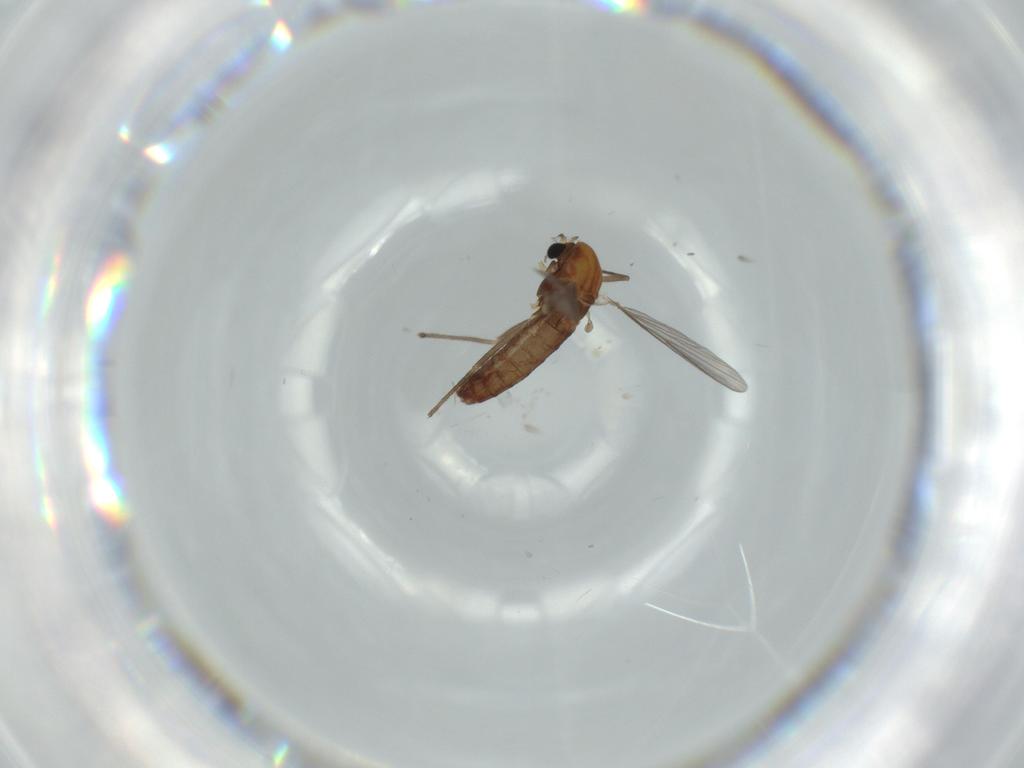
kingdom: Animalia
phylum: Arthropoda
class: Insecta
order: Diptera
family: Chironomidae
